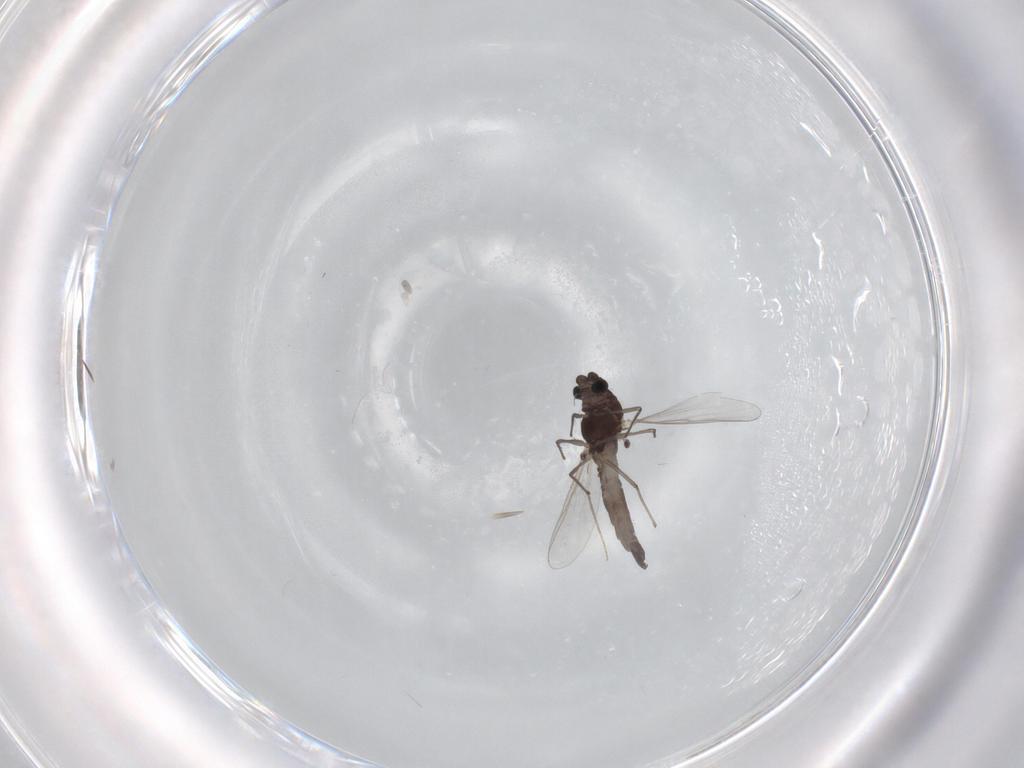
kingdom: Animalia
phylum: Arthropoda
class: Insecta
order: Diptera
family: Chironomidae
